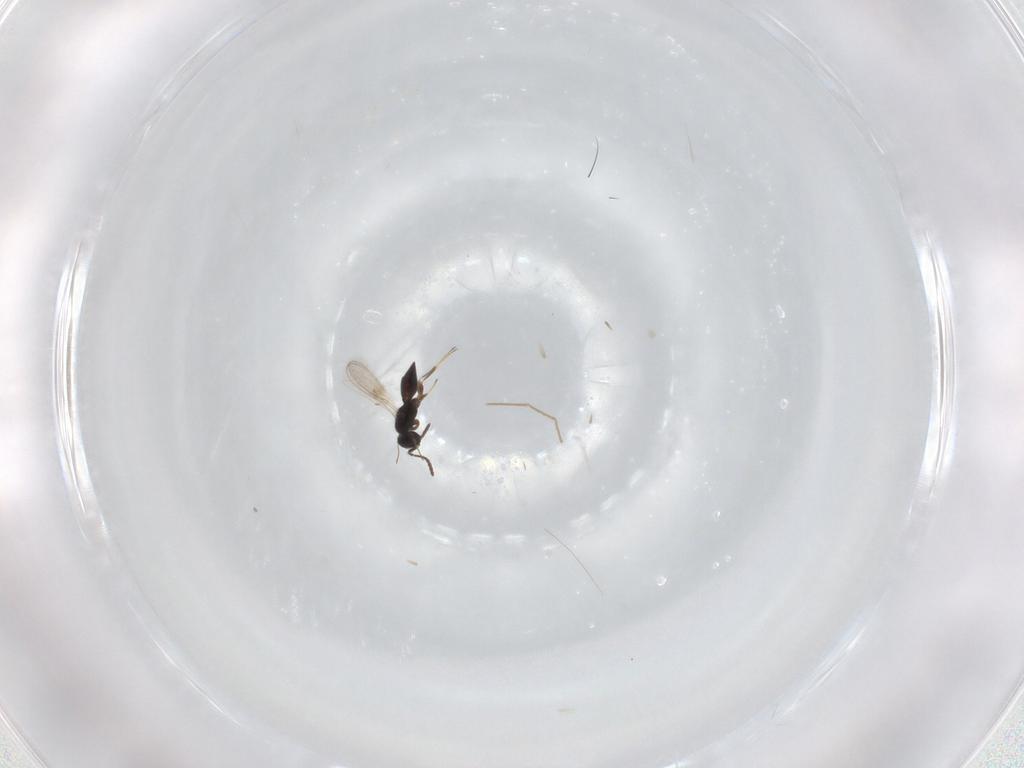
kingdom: Animalia
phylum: Arthropoda
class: Insecta
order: Hymenoptera
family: Scelionidae
